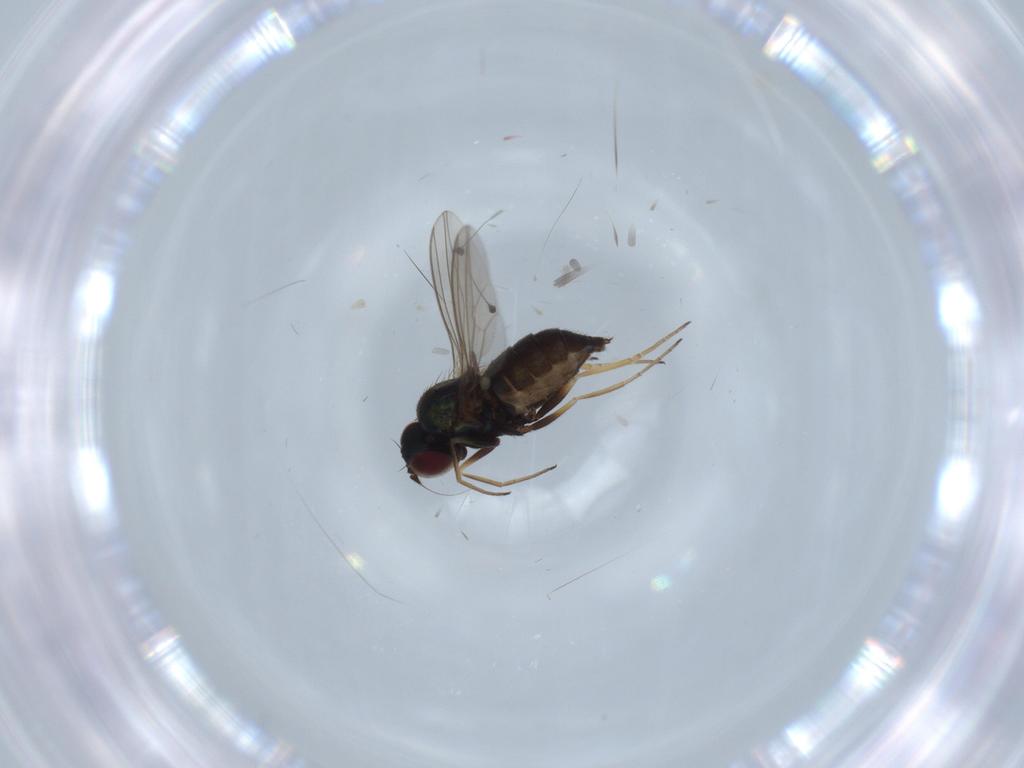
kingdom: Animalia
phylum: Arthropoda
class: Insecta
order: Diptera
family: Dolichopodidae
